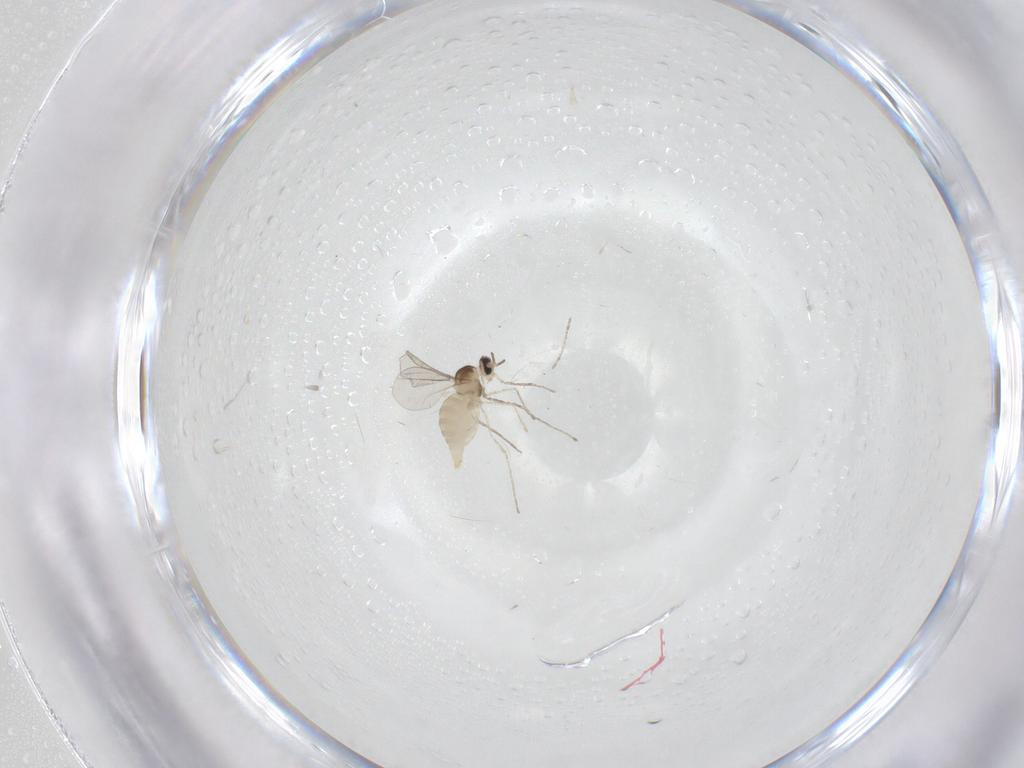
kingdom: Animalia
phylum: Arthropoda
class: Insecta
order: Diptera
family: Cecidomyiidae
